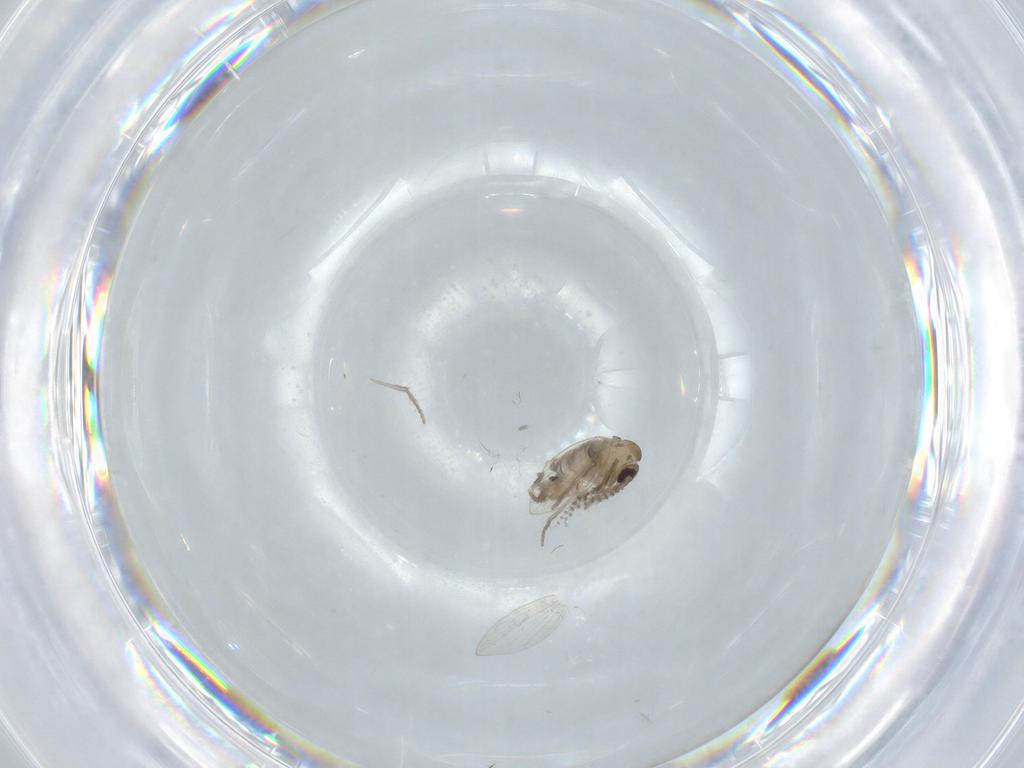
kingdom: Animalia
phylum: Arthropoda
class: Insecta
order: Diptera
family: Psychodidae
